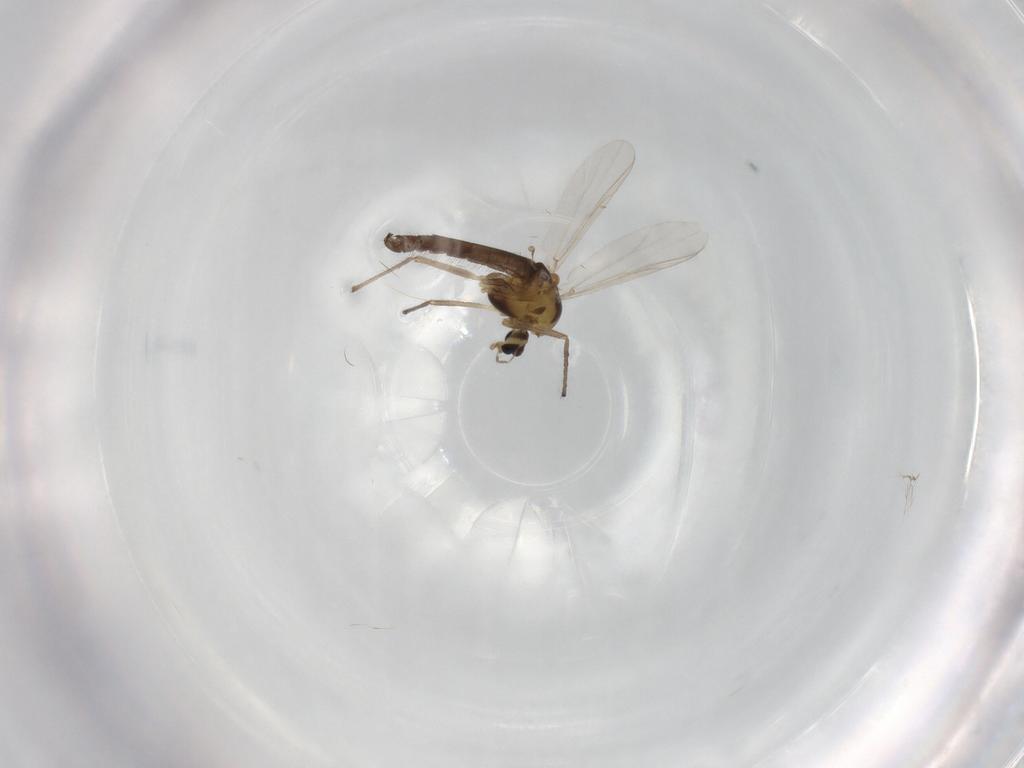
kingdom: Animalia
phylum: Arthropoda
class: Insecta
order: Diptera
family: Chironomidae
